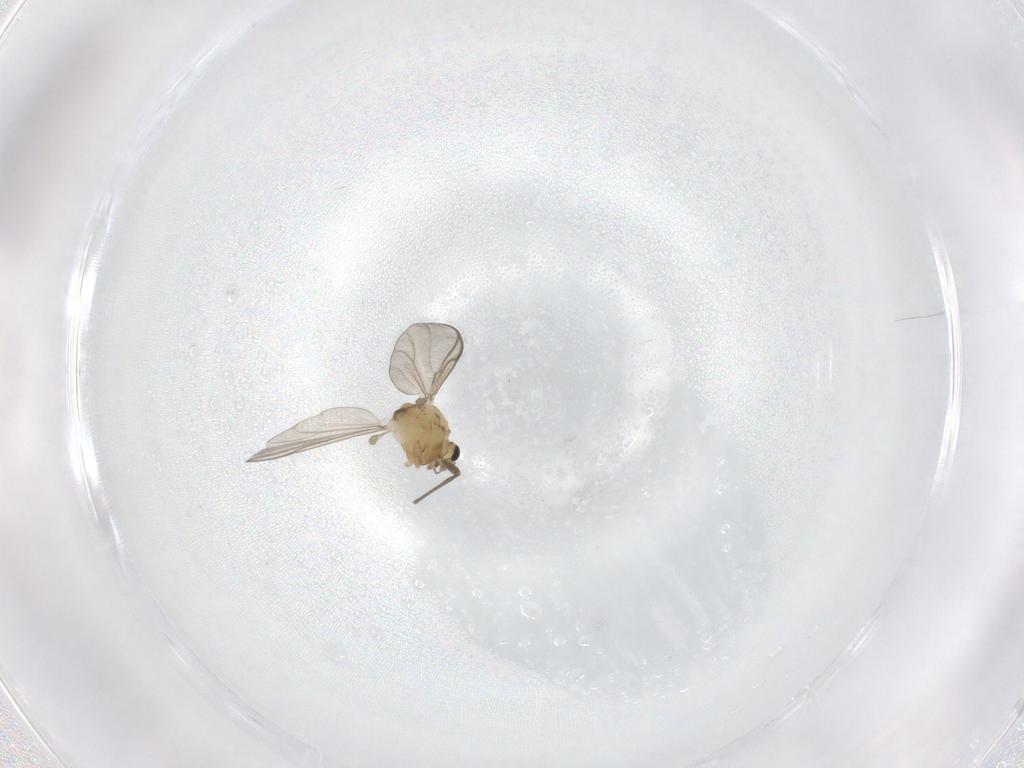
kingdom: Animalia
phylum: Arthropoda
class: Insecta
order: Diptera
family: Chironomidae
